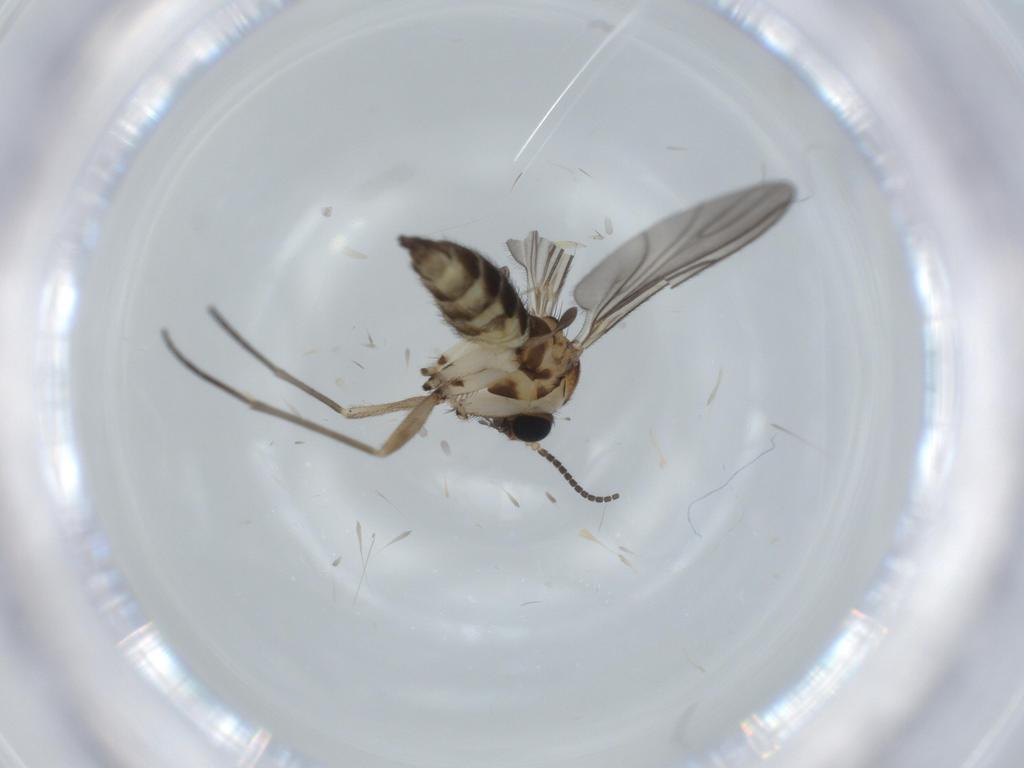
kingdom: Animalia
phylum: Arthropoda
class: Insecta
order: Diptera
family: Sciaridae
